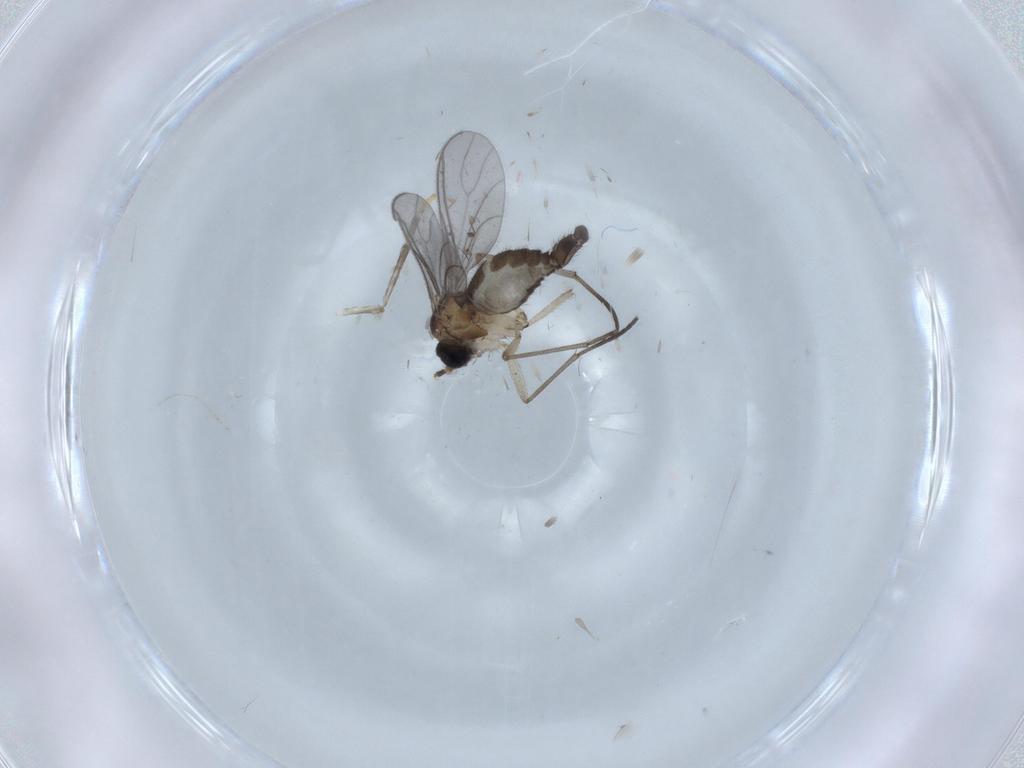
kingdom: Animalia
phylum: Arthropoda
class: Insecta
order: Diptera
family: Sciaridae
